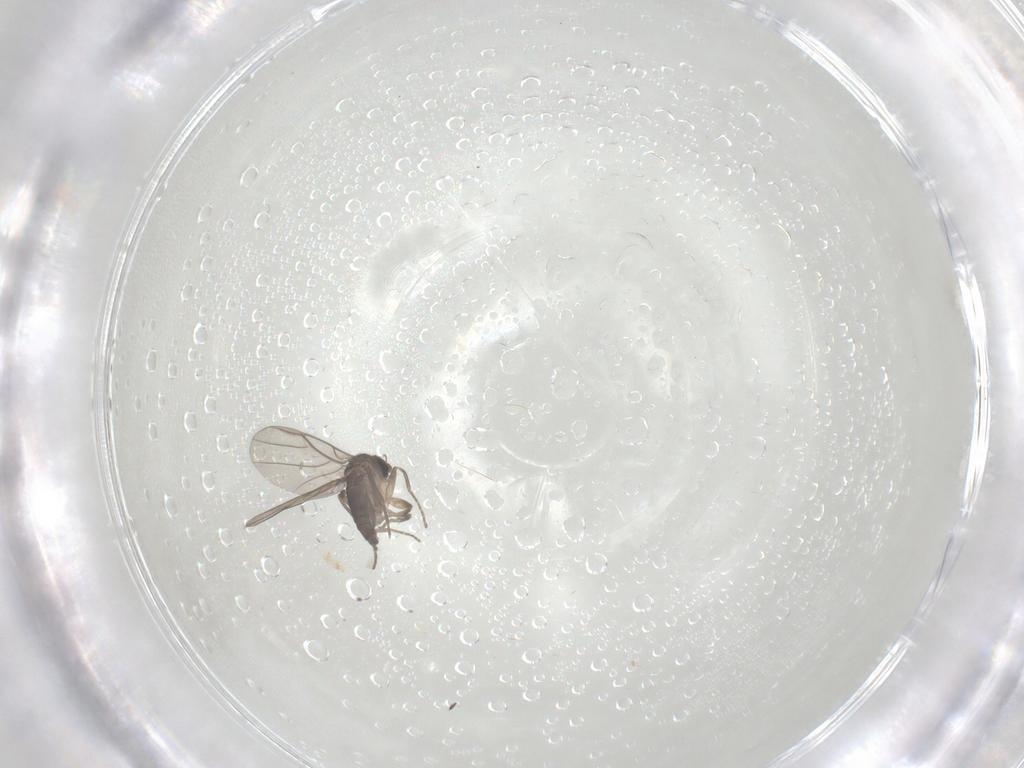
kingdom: Animalia
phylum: Arthropoda
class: Insecta
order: Diptera
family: Phoridae
